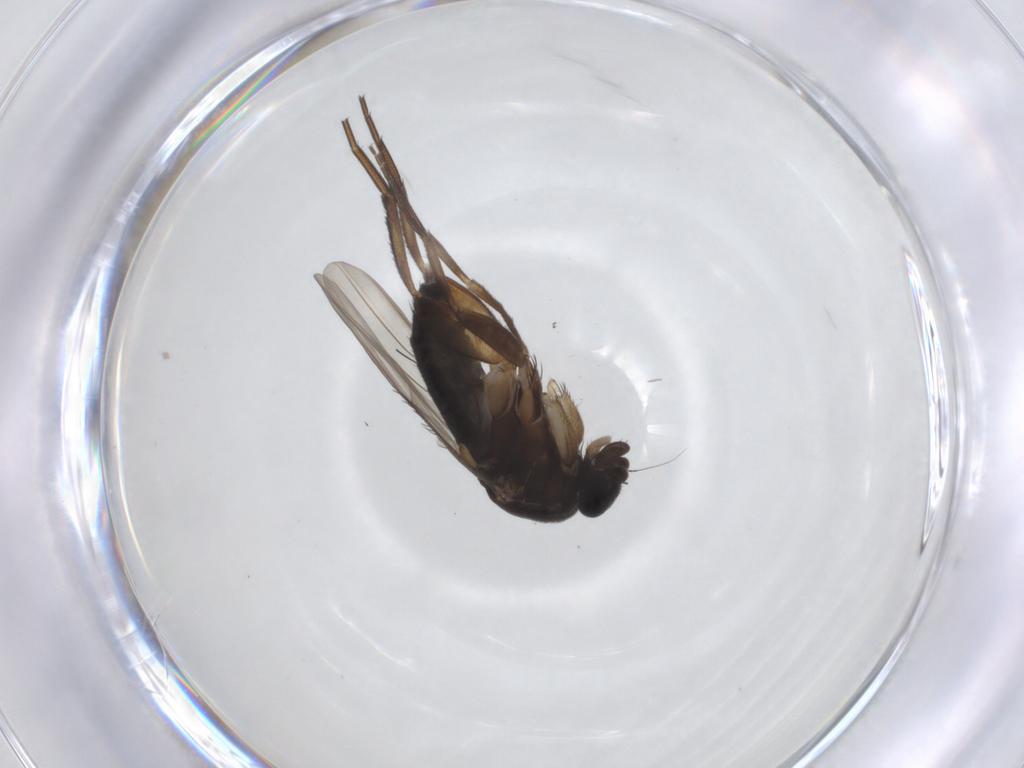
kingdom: Animalia
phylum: Arthropoda
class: Insecta
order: Diptera
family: Phoridae
